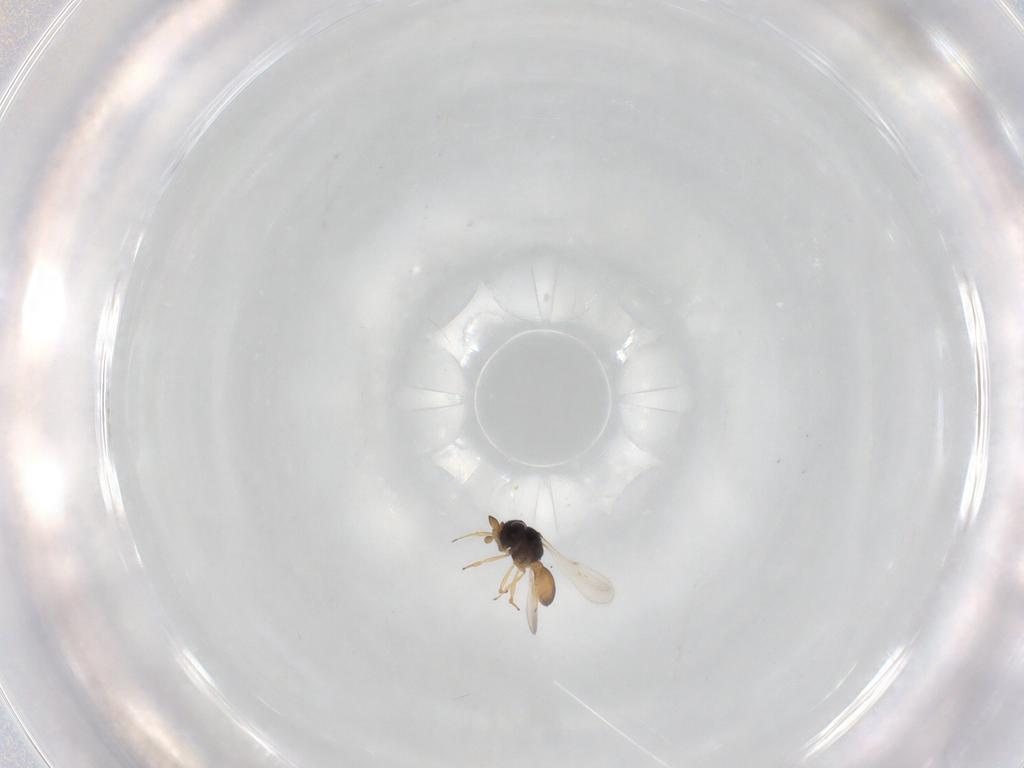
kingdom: Animalia
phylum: Arthropoda
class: Insecta
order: Hymenoptera
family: Scelionidae
